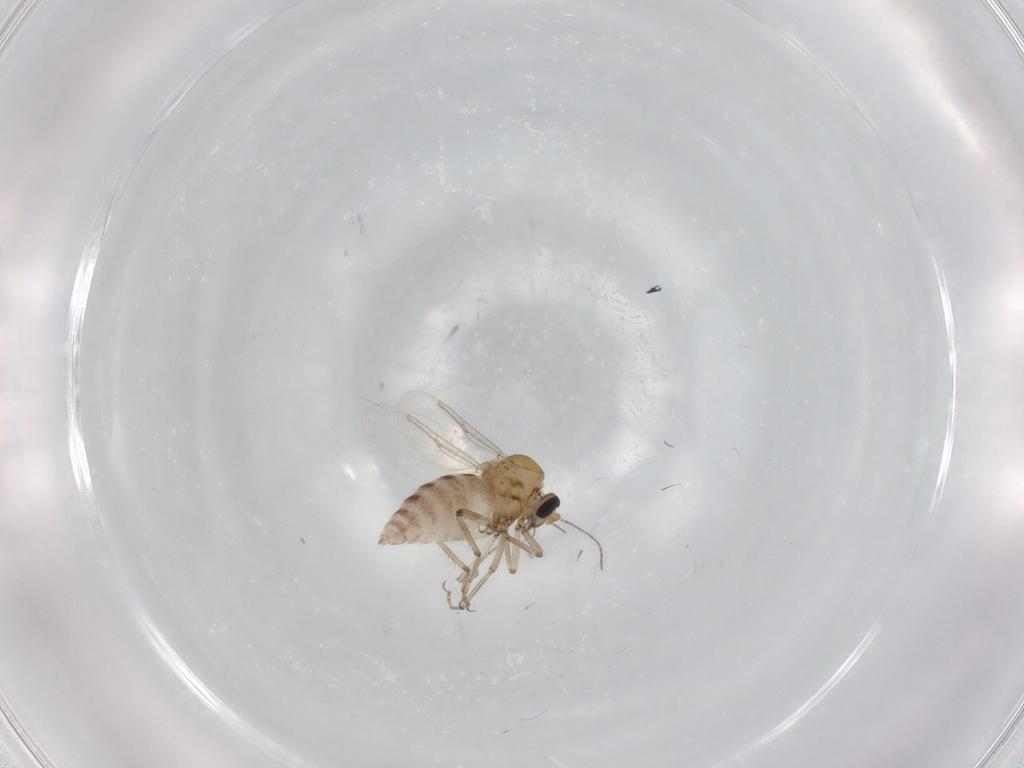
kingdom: Animalia
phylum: Arthropoda
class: Insecta
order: Diptera
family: Ceratopogonidae
